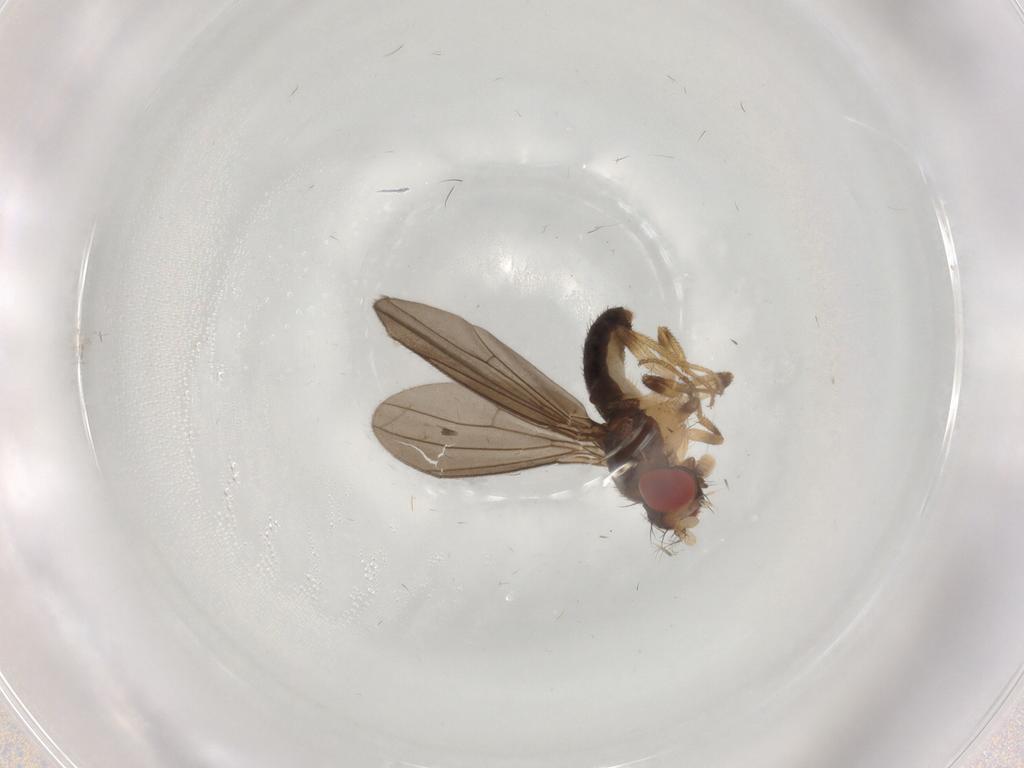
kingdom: Animalia
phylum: Arthropoda
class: Insecta
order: Diptera
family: Drosophilidae
